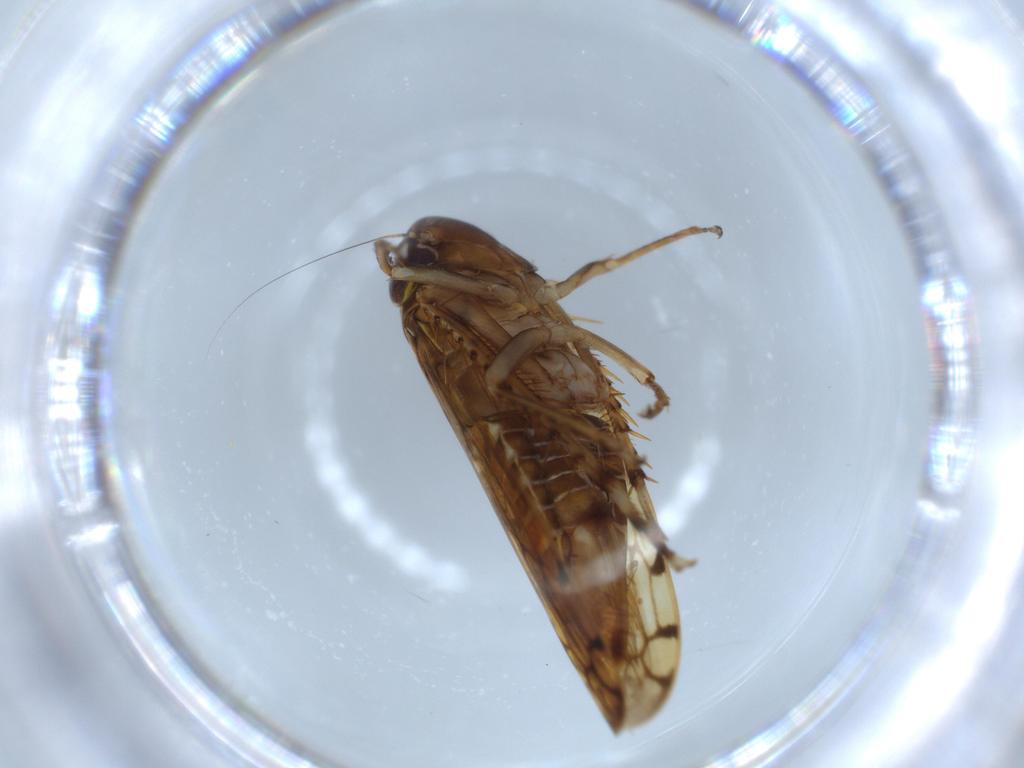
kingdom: Animalia
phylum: Arthropoda
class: Insecta
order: Hemiptera
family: Cicadellidae
